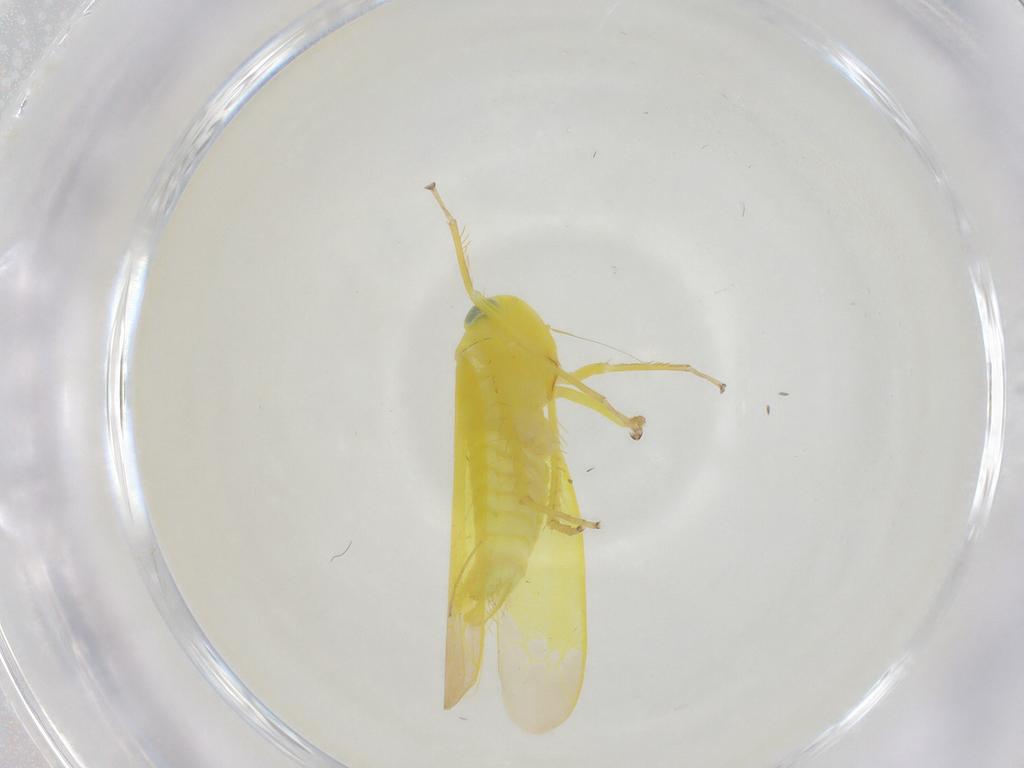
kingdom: Animalia
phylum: Arthropoda
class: Insecta
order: Hemiptera
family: Cicadellidae
